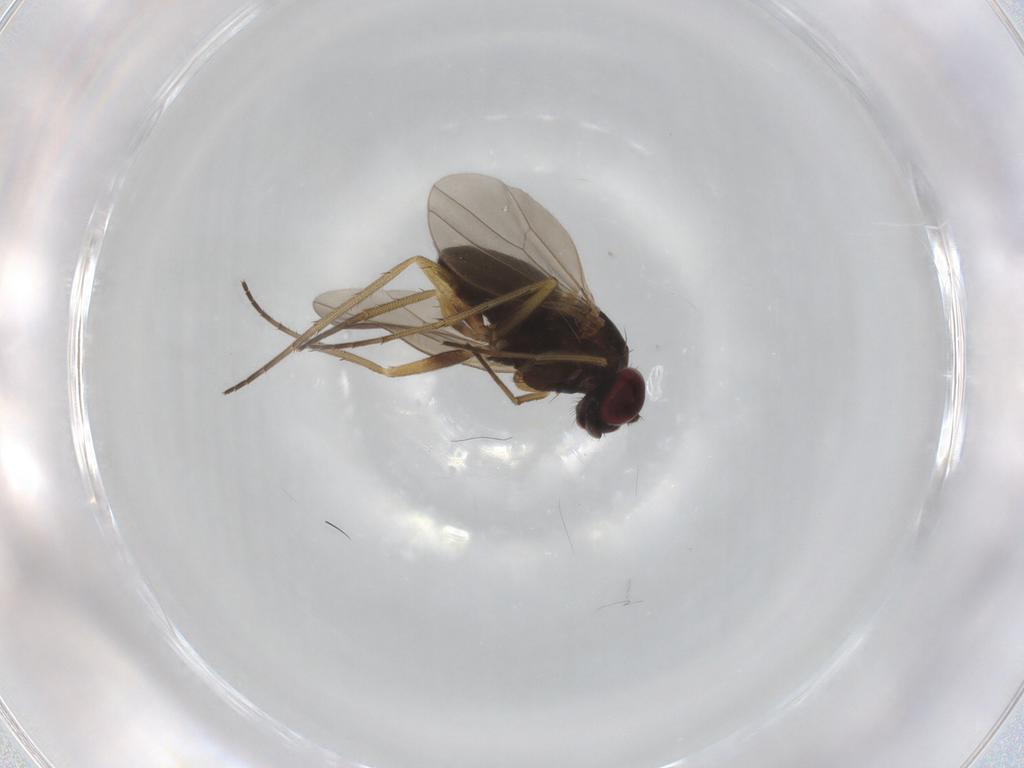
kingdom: Animalia
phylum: Arthropoda
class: Insecta
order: Diptera
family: Sciaridae
